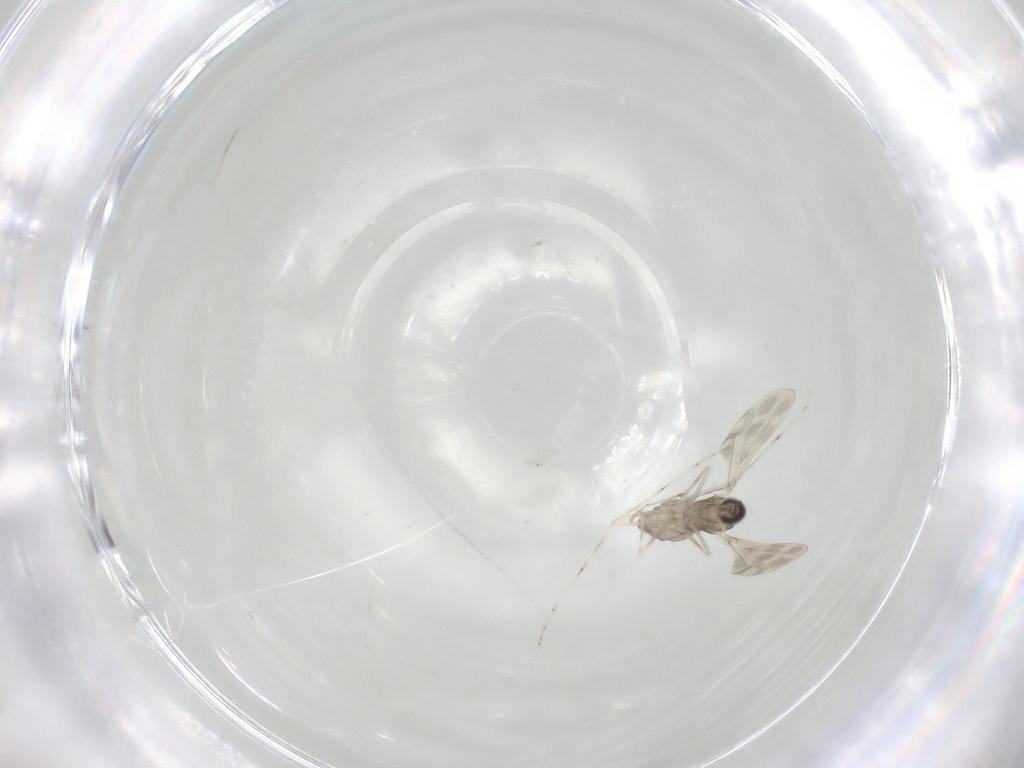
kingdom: Animalia
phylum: Arthropoda
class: Insecta
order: Diptera
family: Cecidomyiidae
